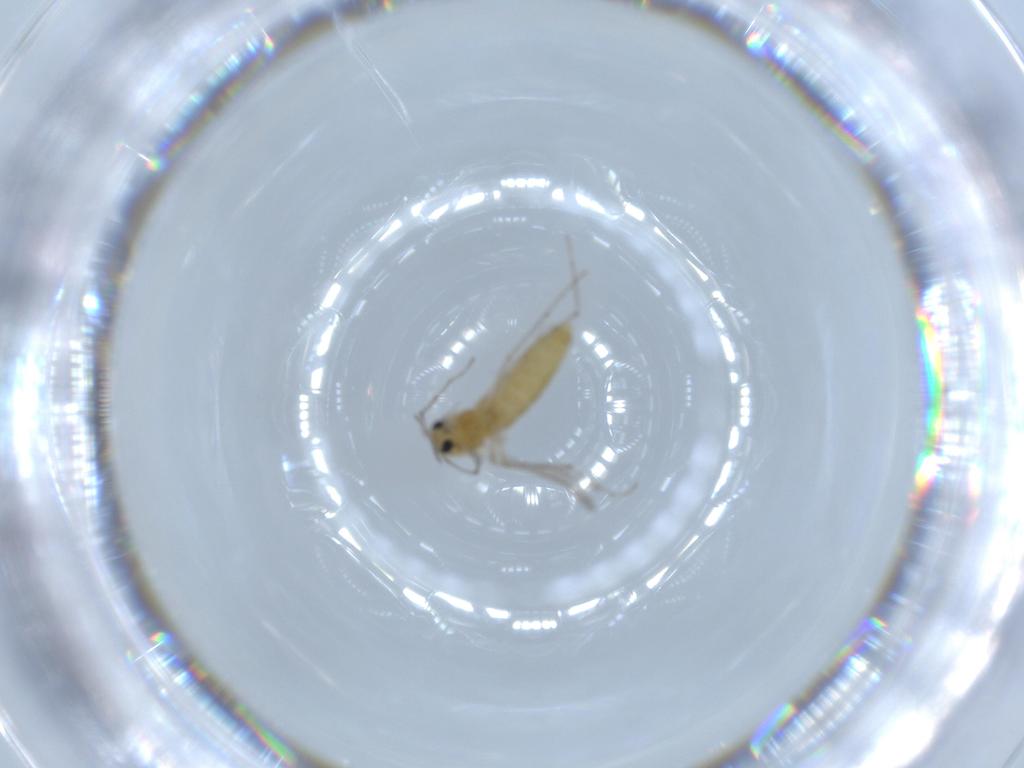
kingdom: Animalia
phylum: Arthropoda
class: Insecta
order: Diptera
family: Chironomidae
